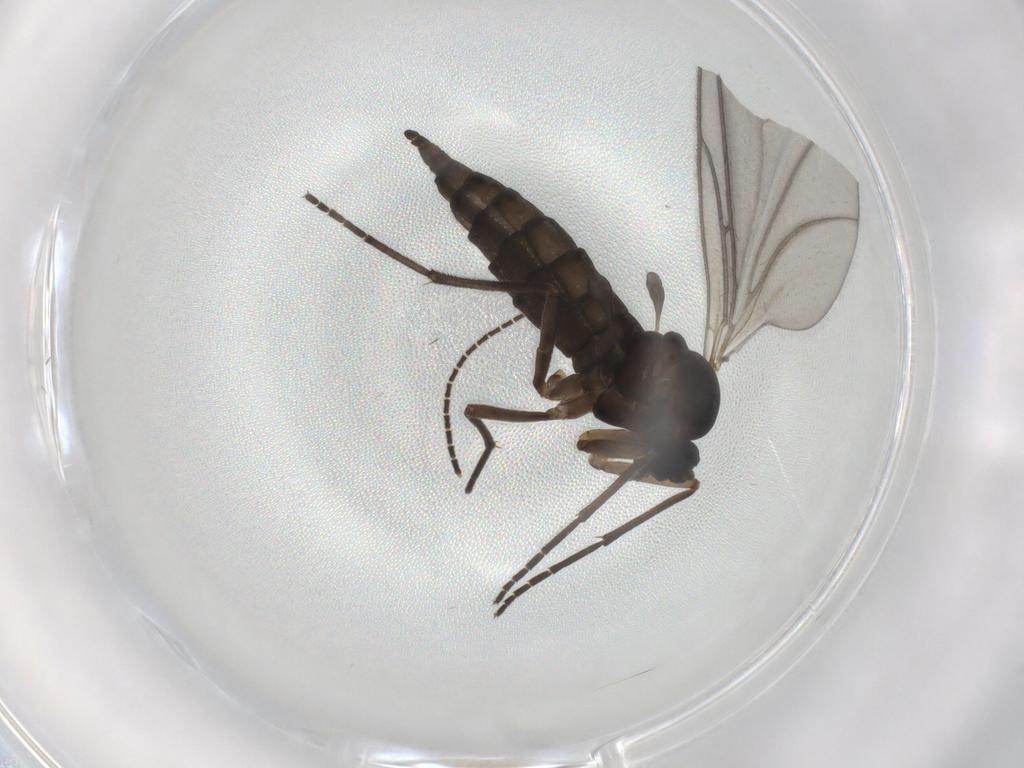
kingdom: Animalia
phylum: Arthropoda
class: Insecta
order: Diptera
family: Sciaridae
